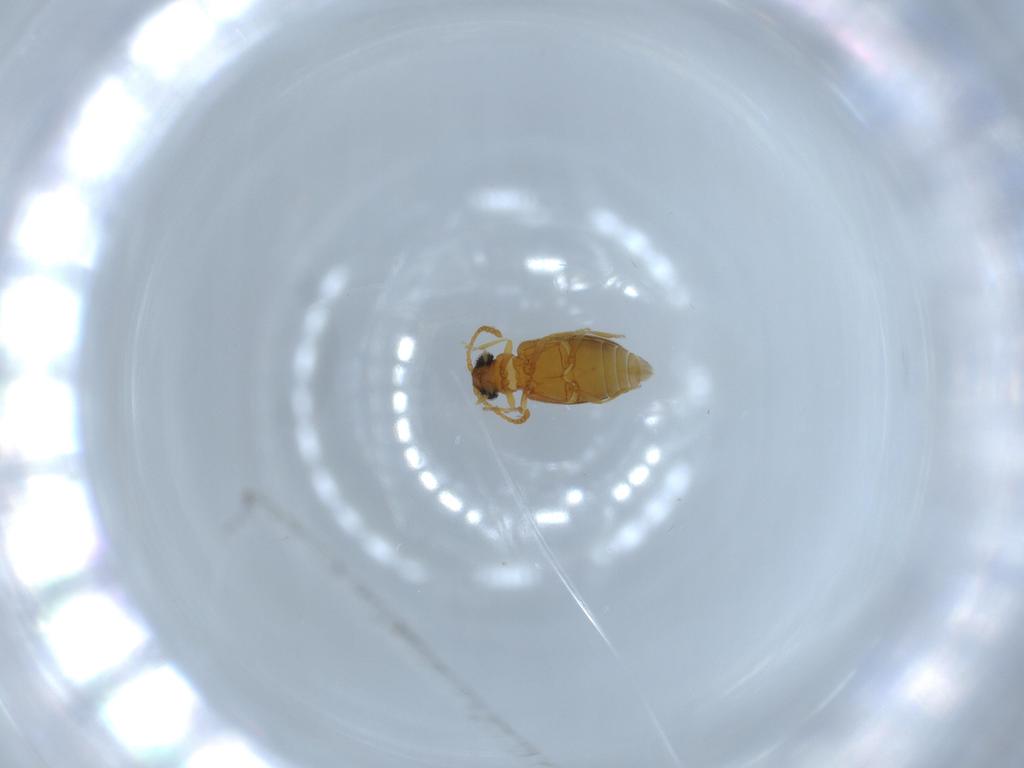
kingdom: Animalia
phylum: Arthropoda
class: Insecta
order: Coleoptera
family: Aderidae
